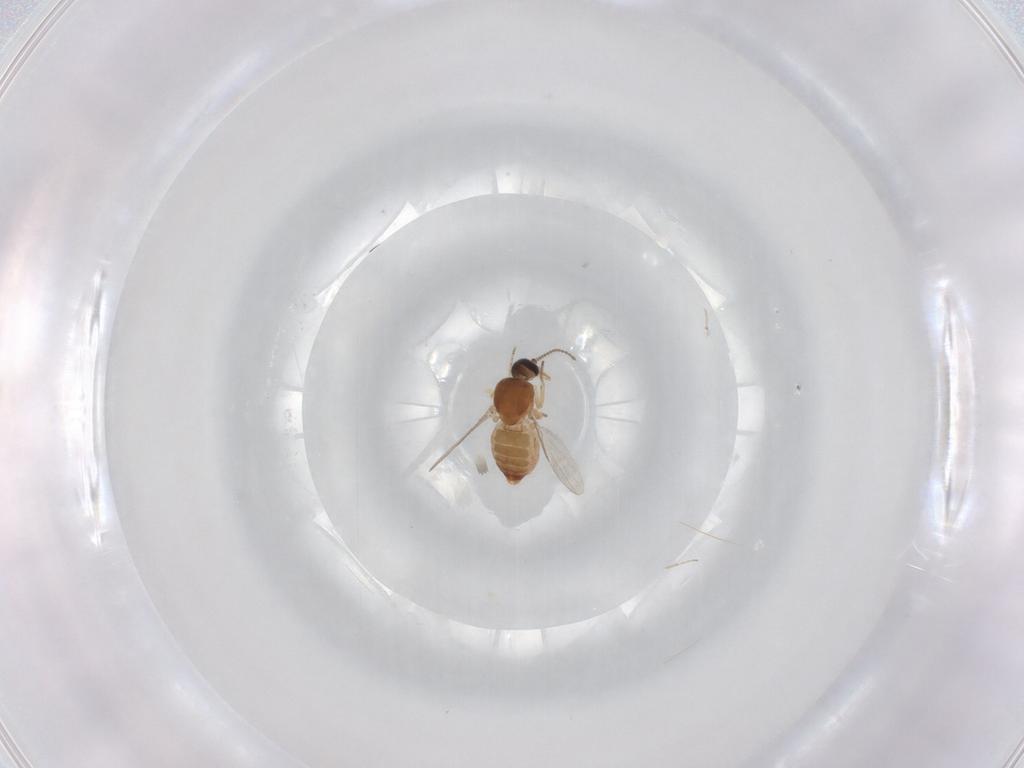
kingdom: Animalia
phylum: Arthropoda
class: Insecta
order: Diptera
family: Ceratopogonidae
